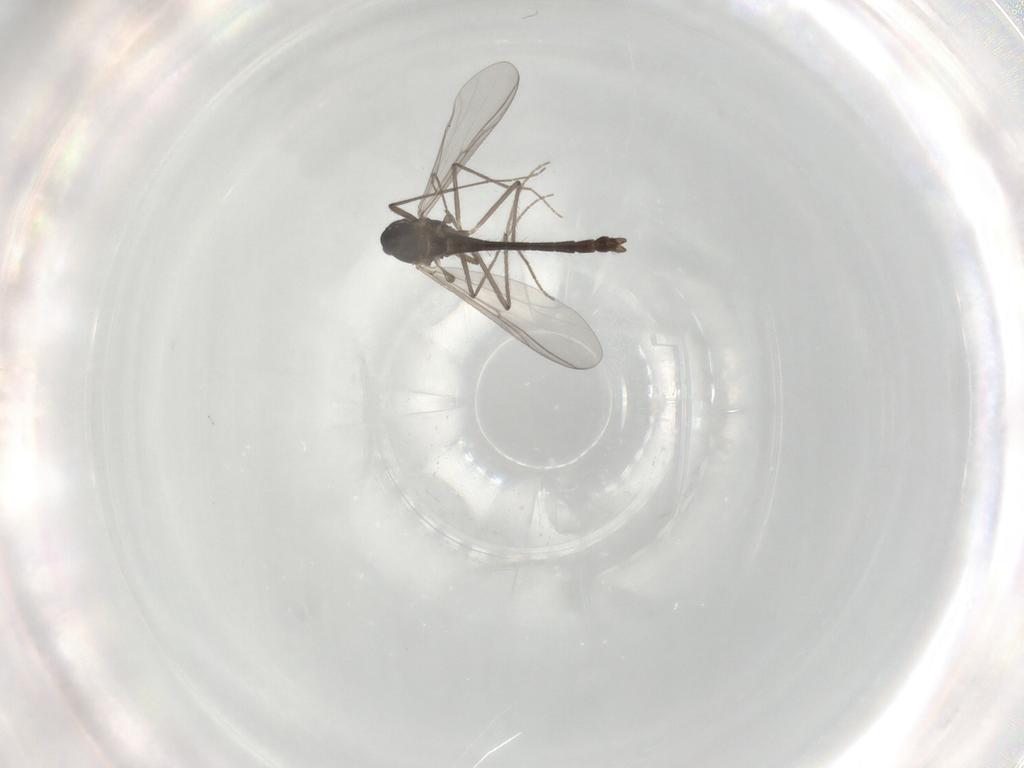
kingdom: Animalia
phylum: Arthropoda
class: Insecta
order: Diptera
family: Chironomidae
